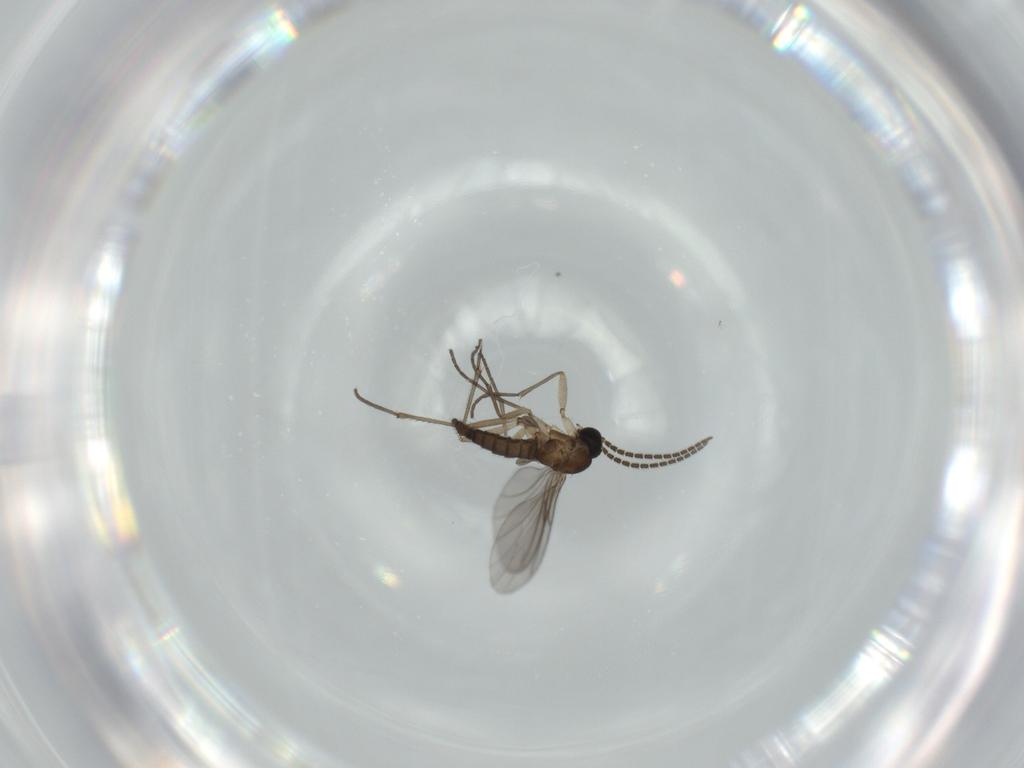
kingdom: Animalia
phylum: Arthropoda
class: Insecta
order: Diptera
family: Sciaridae
